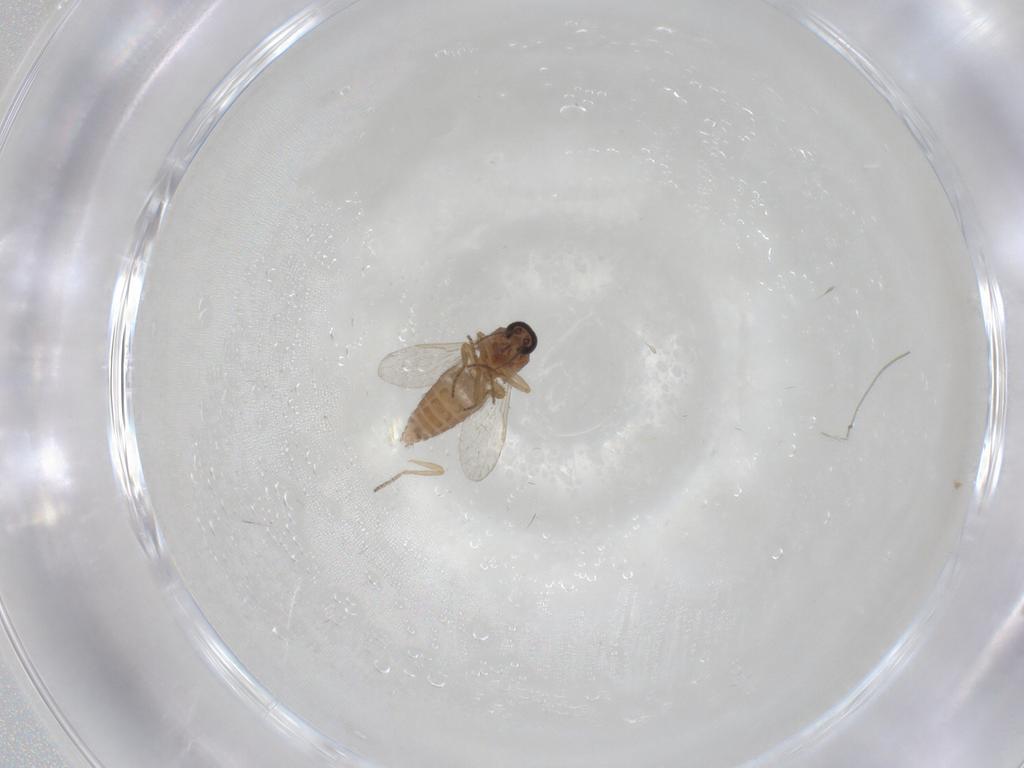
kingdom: Animalia
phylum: Arthropoda
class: Insecta
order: Diptera
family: Ceratopogonidae
